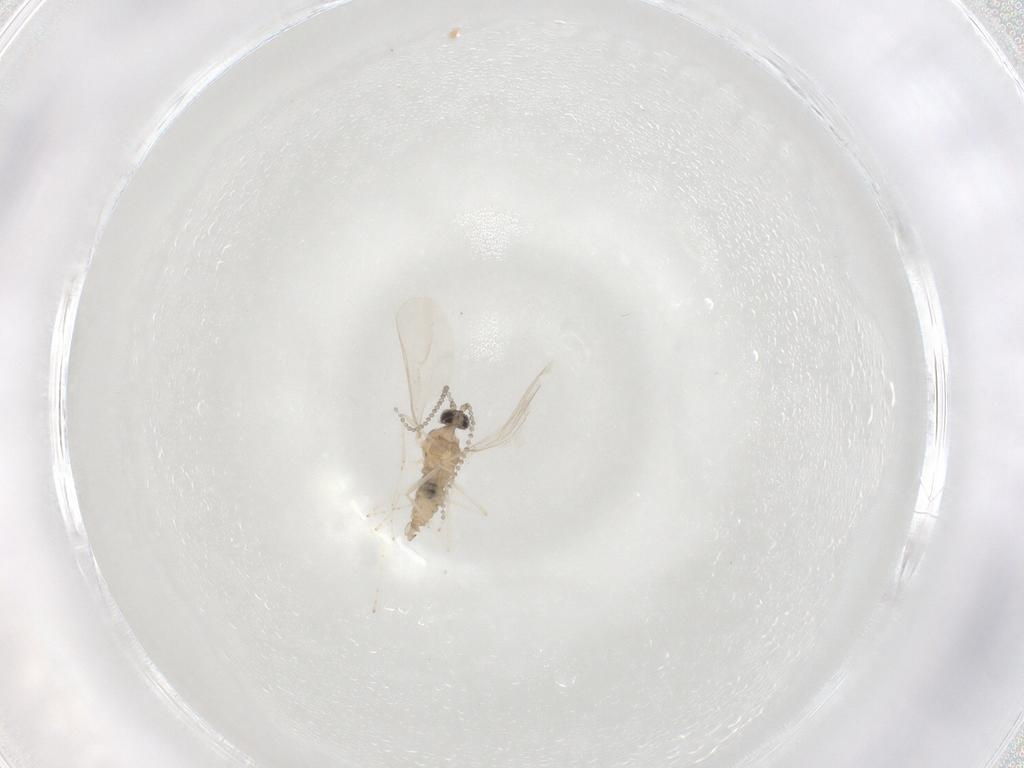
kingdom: Animalia
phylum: Arthropoda
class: Insecta
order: Diptera
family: Cecidomyiidae
